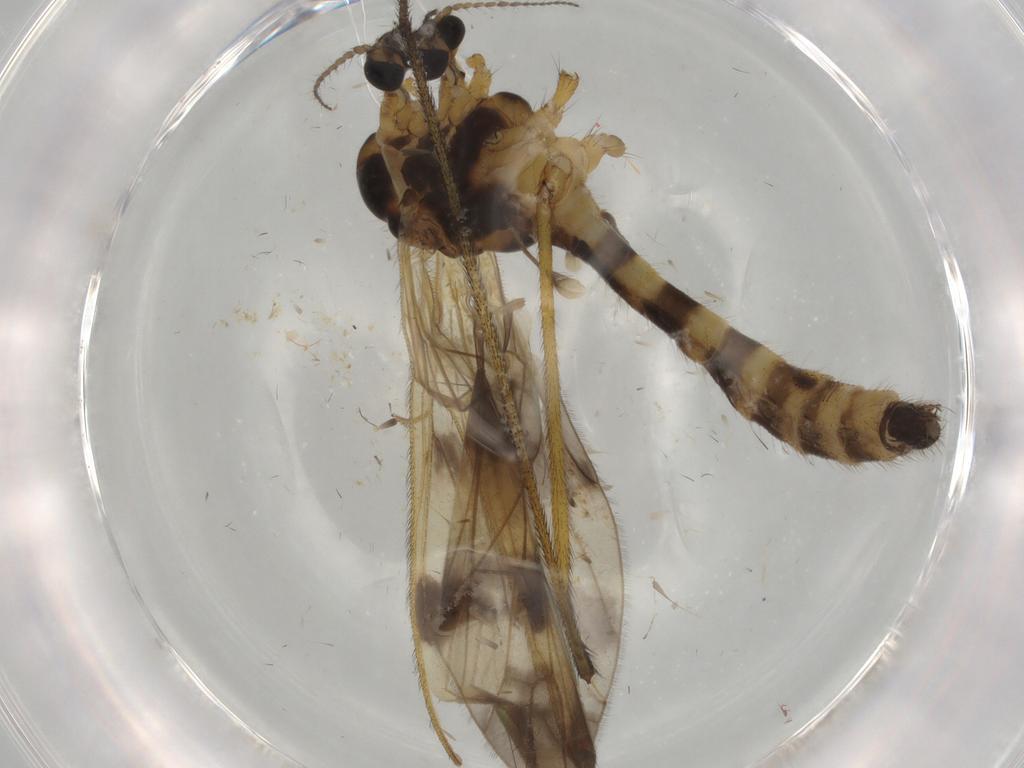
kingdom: Animalia
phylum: Arthropoda
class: Insecta
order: Diptera
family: Limoniidae
